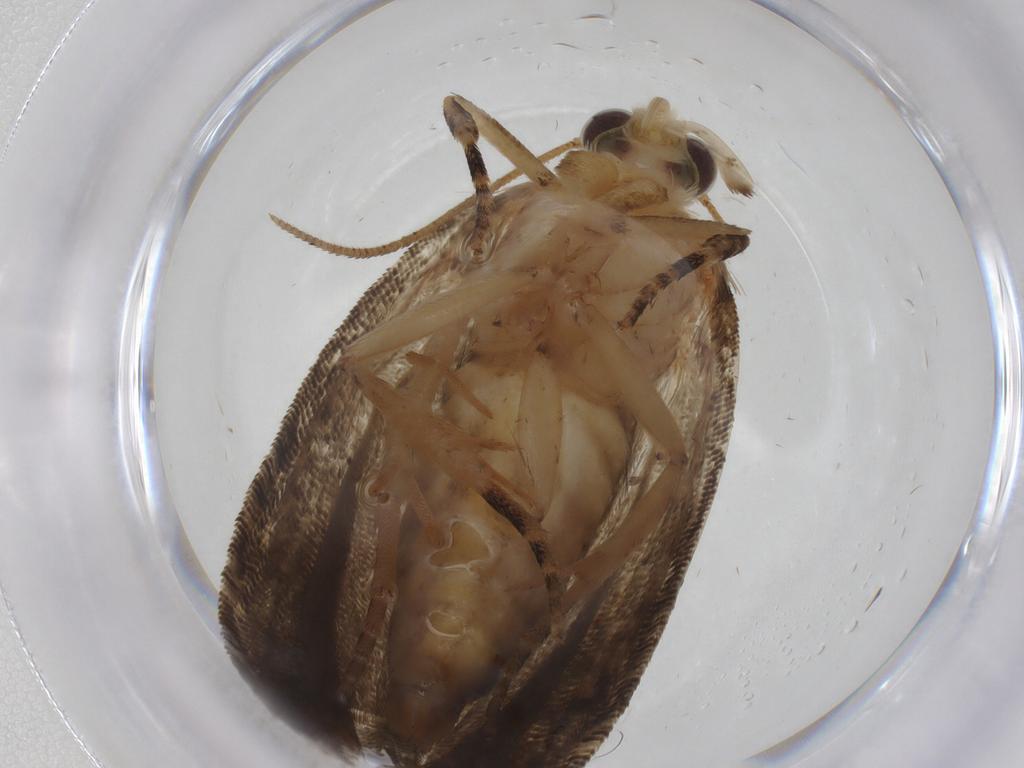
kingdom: Animalia
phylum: Arthropoda
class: Insecta
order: Lepidoptera
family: Tortricidae
